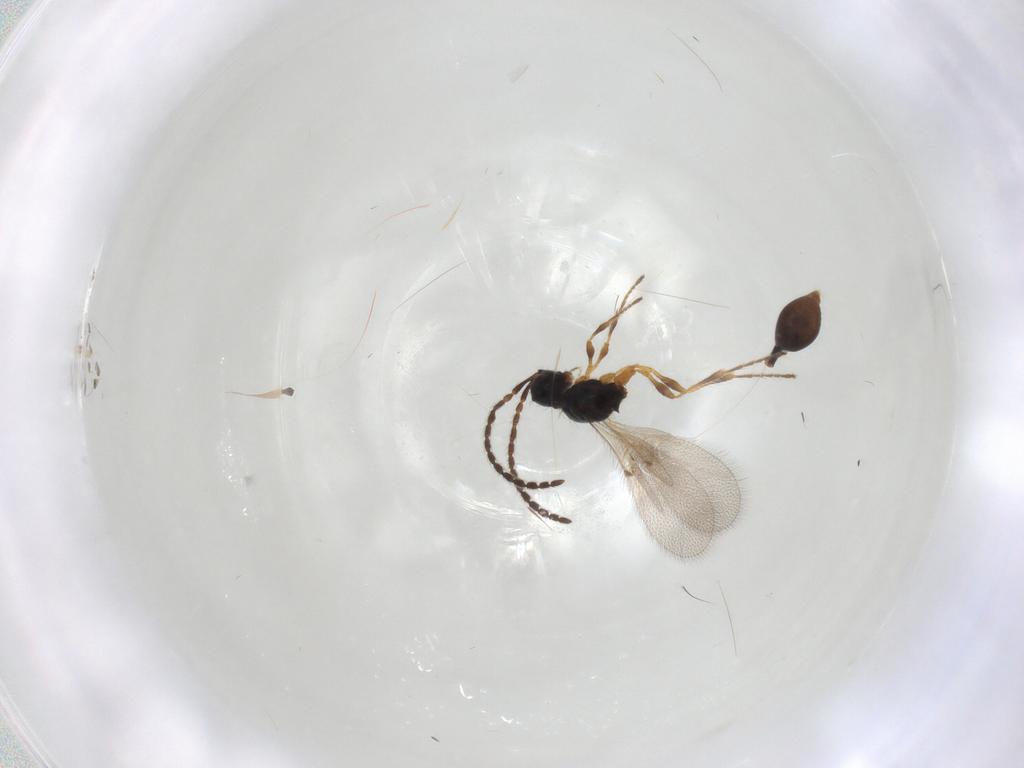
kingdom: Animalia
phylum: Arthropoda
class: Insecta
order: Hymenoptera
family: Diapriidae
